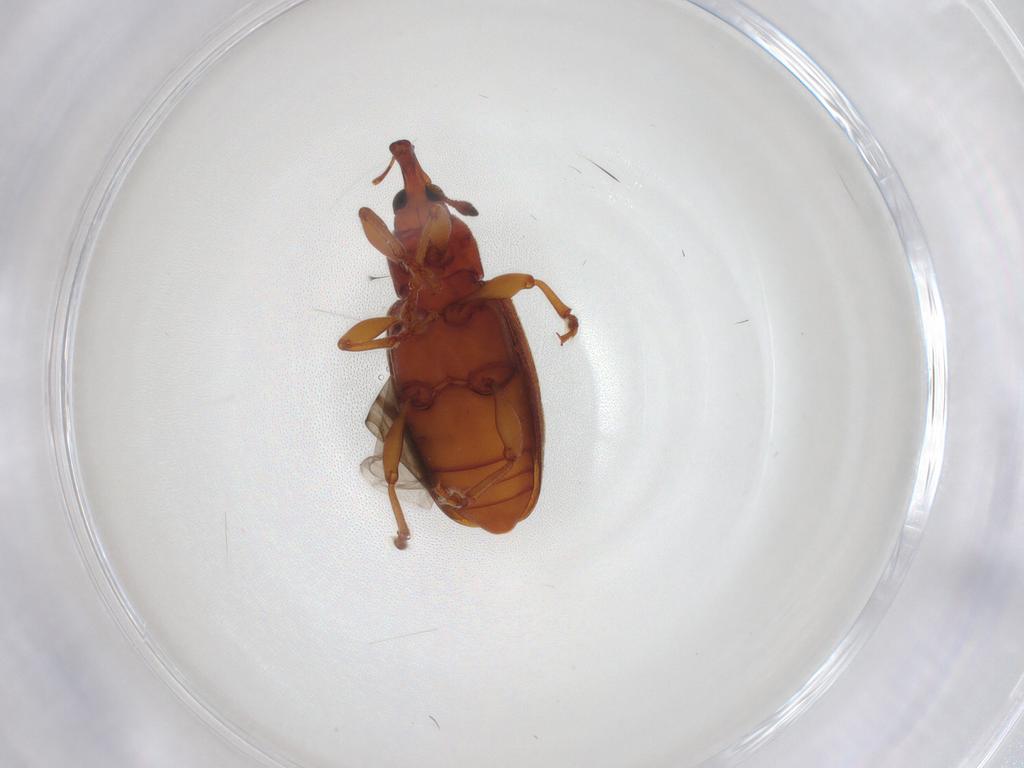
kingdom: Animalia
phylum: Arthropoda
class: Insecta
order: Coleoptera
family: Curculionidae
